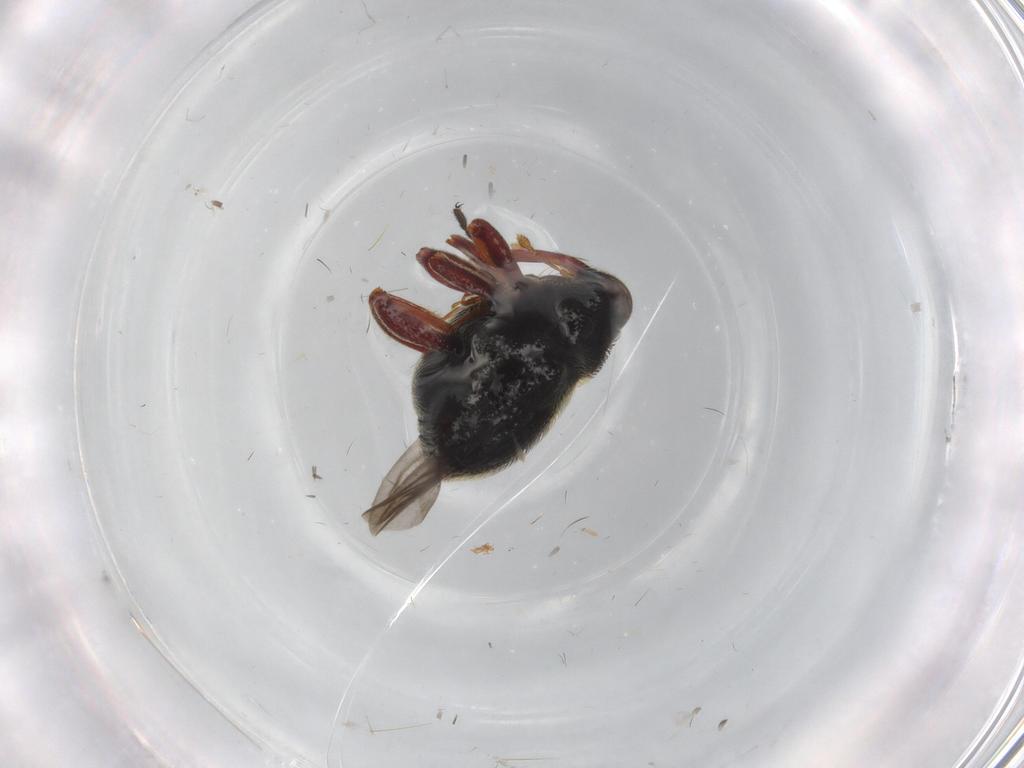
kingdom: Animalia
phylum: Arthropoda
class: Insecta
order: Coleoptera
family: Curculionidae
